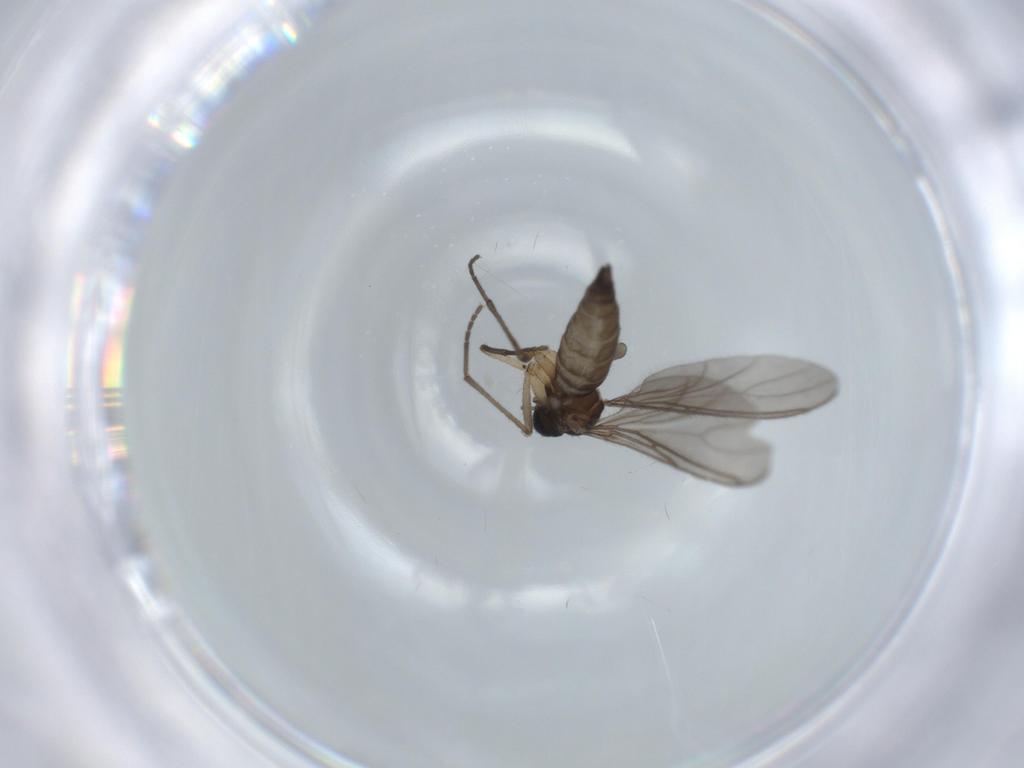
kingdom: Animalia
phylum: Arthropoda
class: Insecta
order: Diptera
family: Sciaridae
